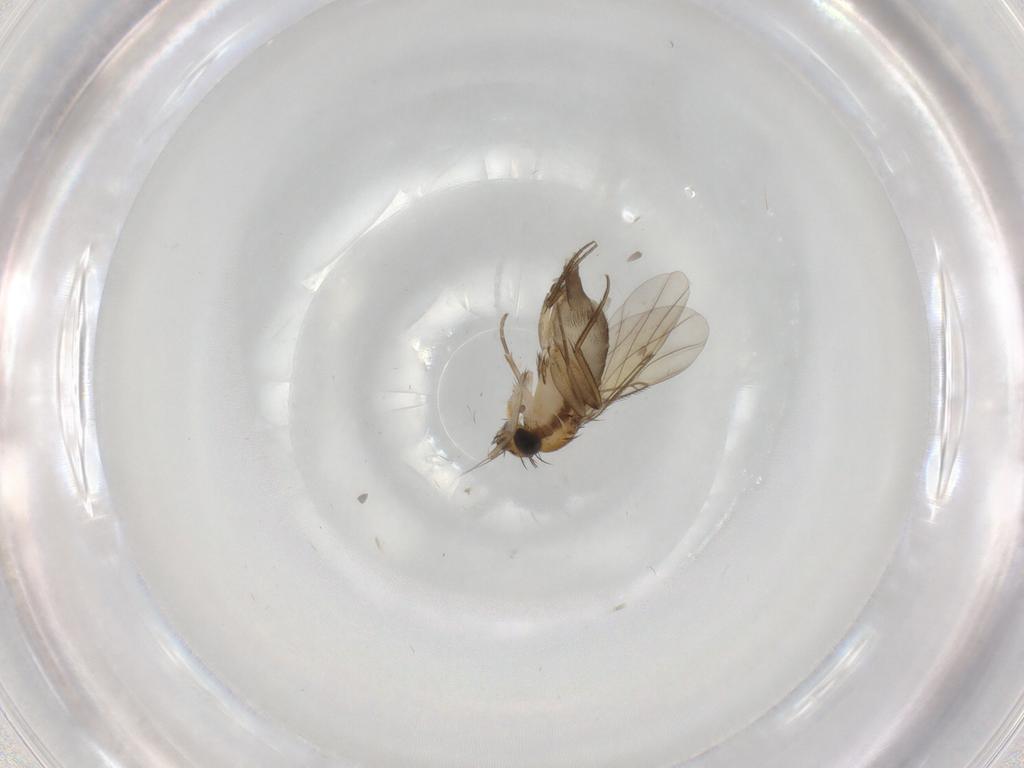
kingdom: Animalia
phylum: Arthropoda
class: Insecta
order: Diptera
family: Phoridae
